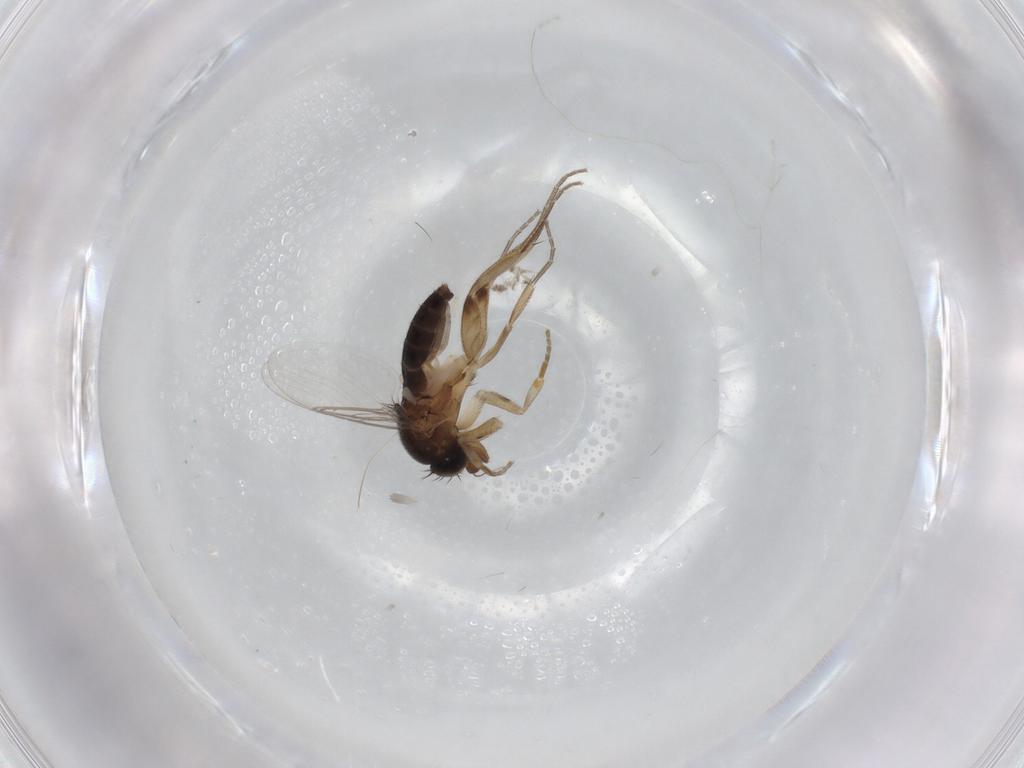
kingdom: Animalia
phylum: Arthropoda
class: Insecta
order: Diptera
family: Phoridae
